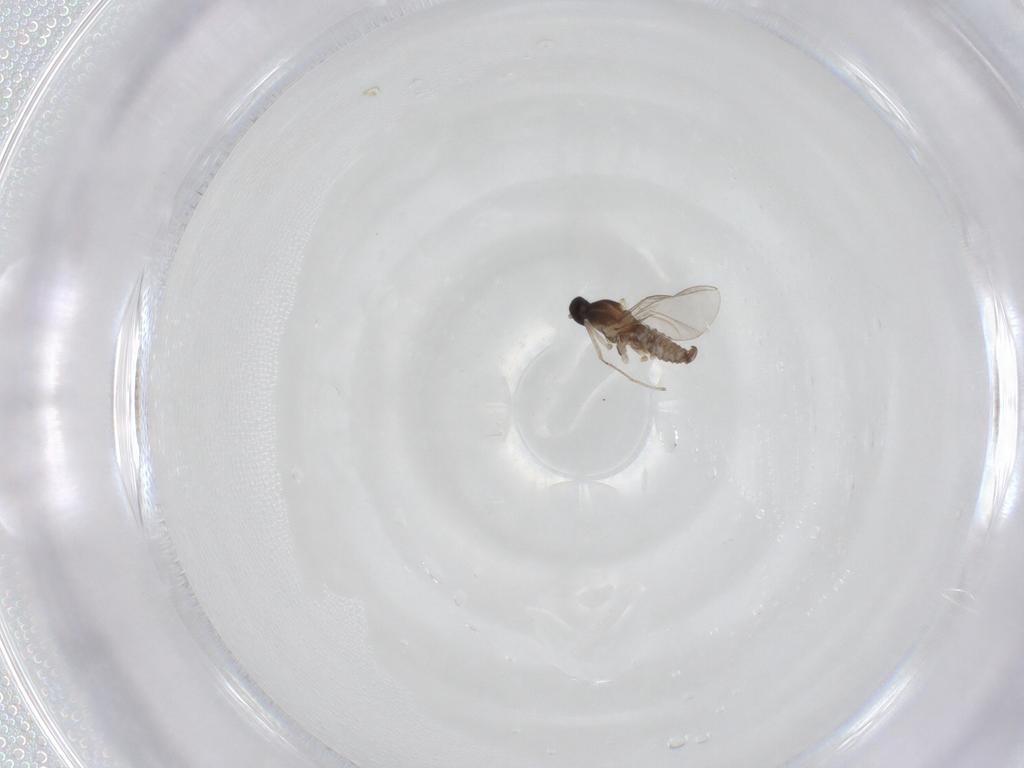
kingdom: Animalia
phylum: Arthropoda
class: Insecta
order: Diptera
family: Cecidomyiidae
